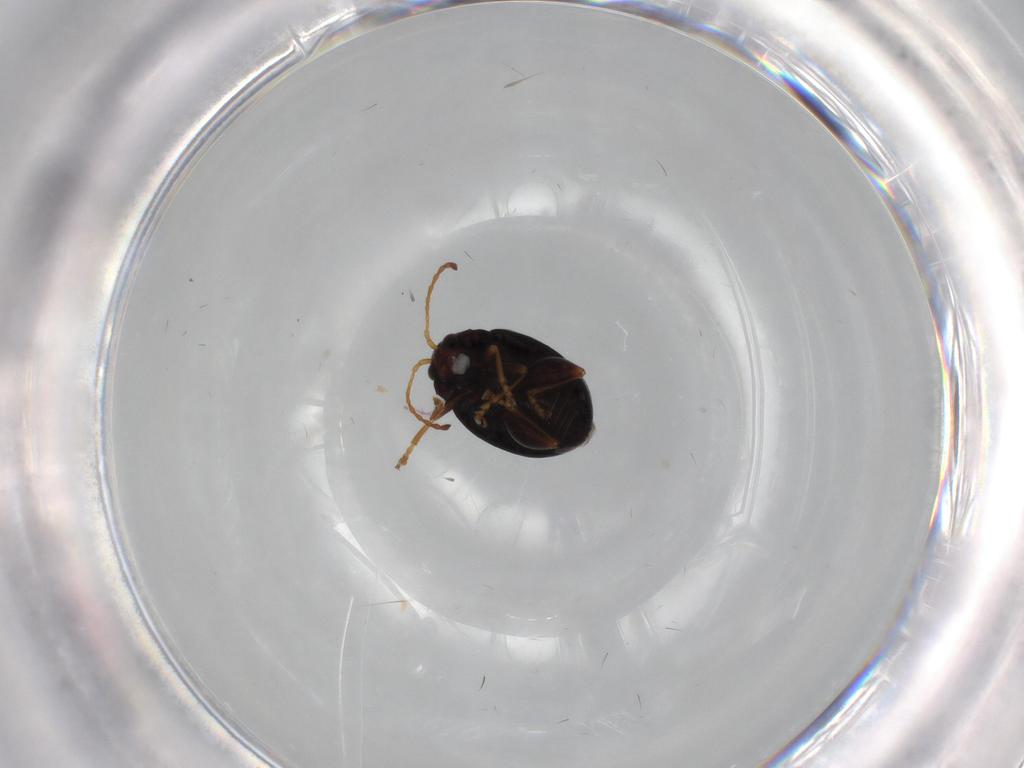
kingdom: Animalia
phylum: Arthropoda
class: Insecta
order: Coleoptera
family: Chrysomelidae
